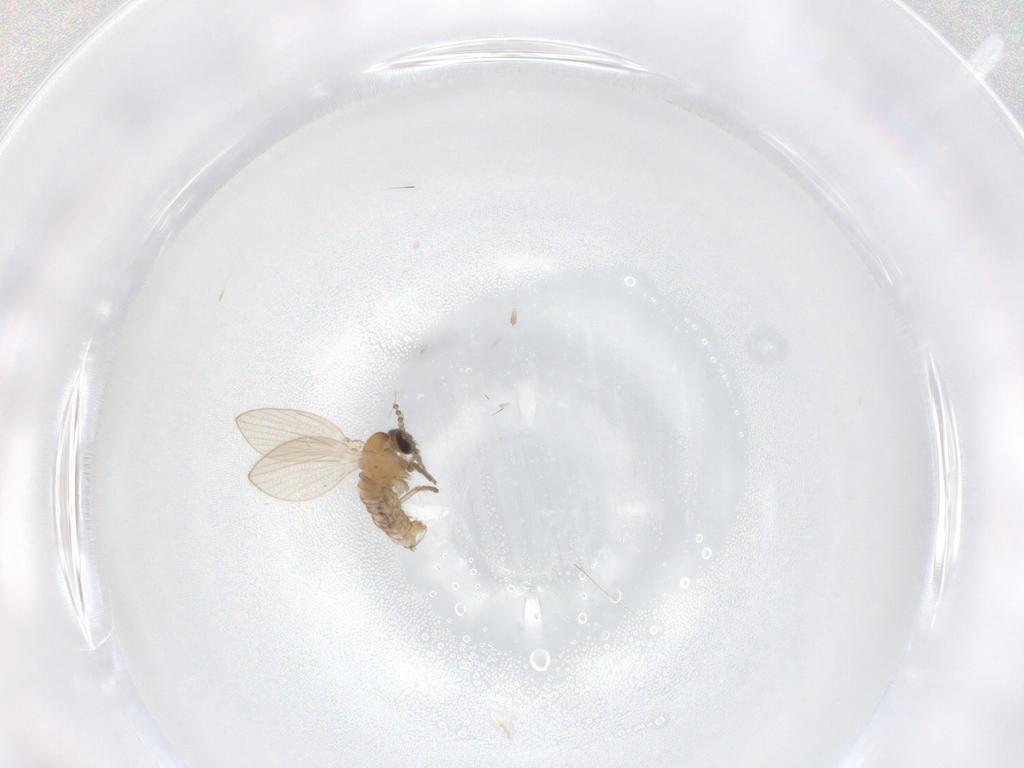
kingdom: Animalia
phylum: Arthropoda
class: Insecta
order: Diptera
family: Psychodidae
